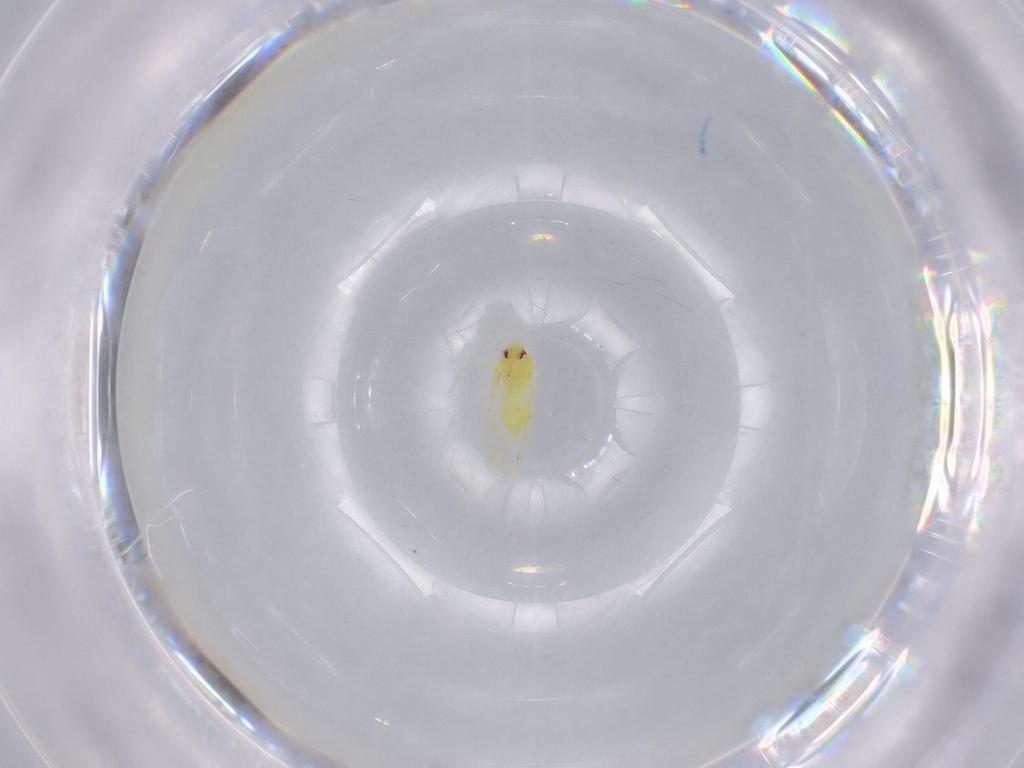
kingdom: Animalia
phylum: Arthropoda
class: Insecta
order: Hemiptera
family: Aleyrodidae
